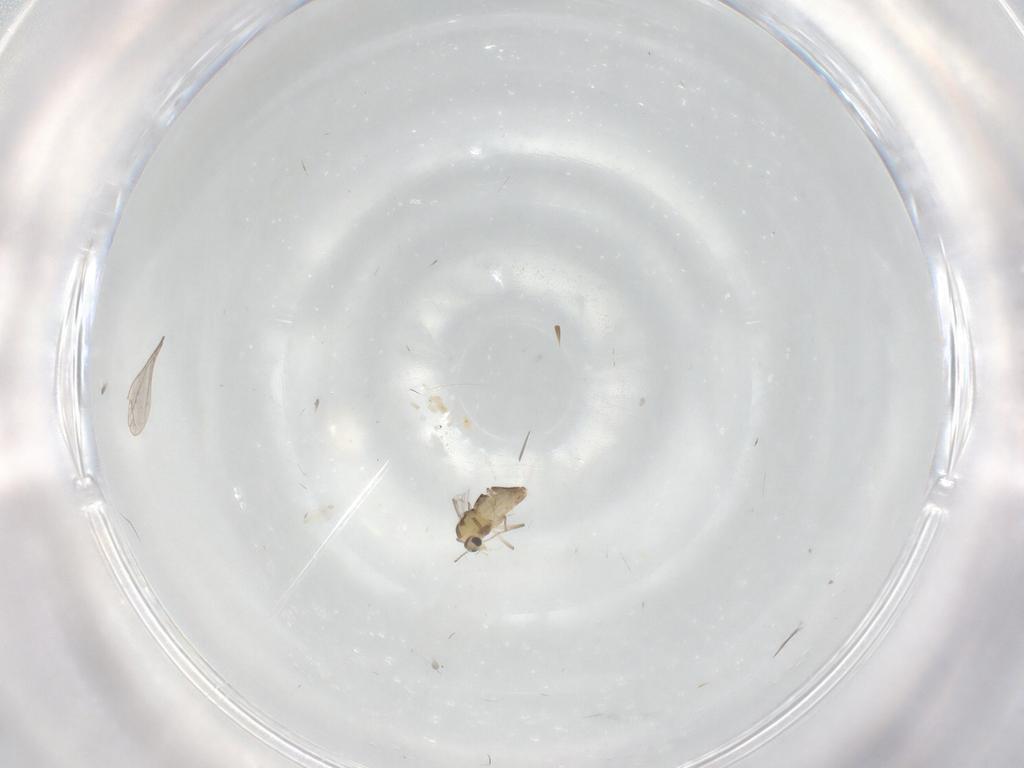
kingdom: Animalia
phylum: Arthropoda
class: Insecta
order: Diptera
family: Chironomidae
